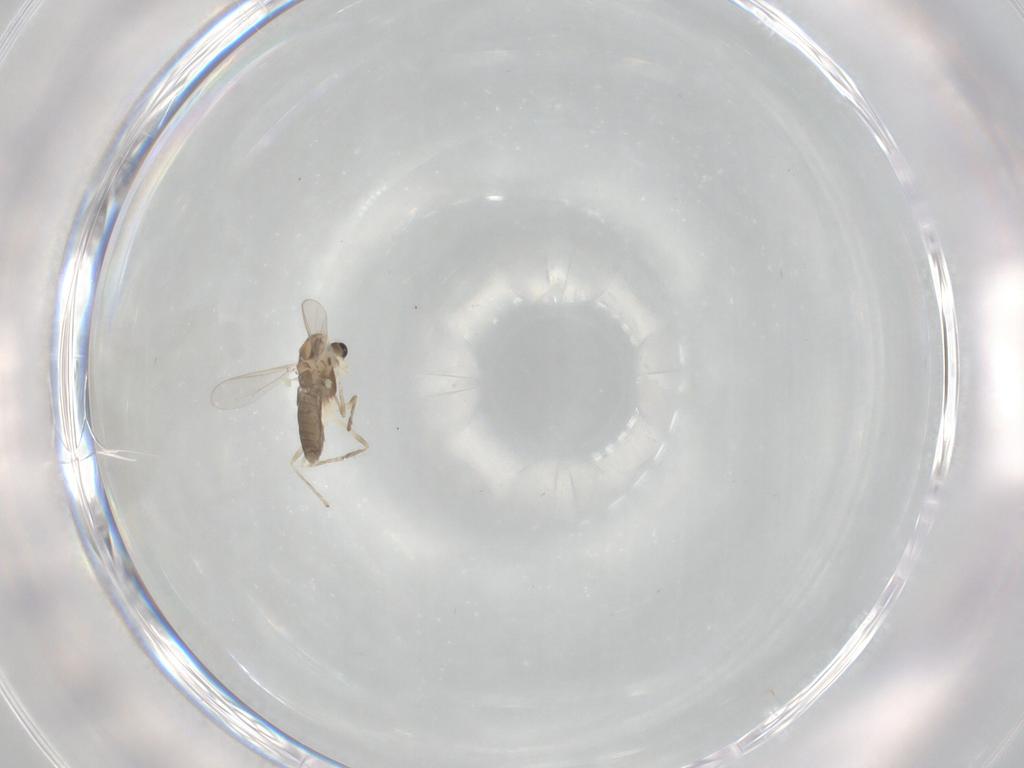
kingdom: Animalia
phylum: Arthropoda
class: Insecta
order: Diptera
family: Chironomidae
